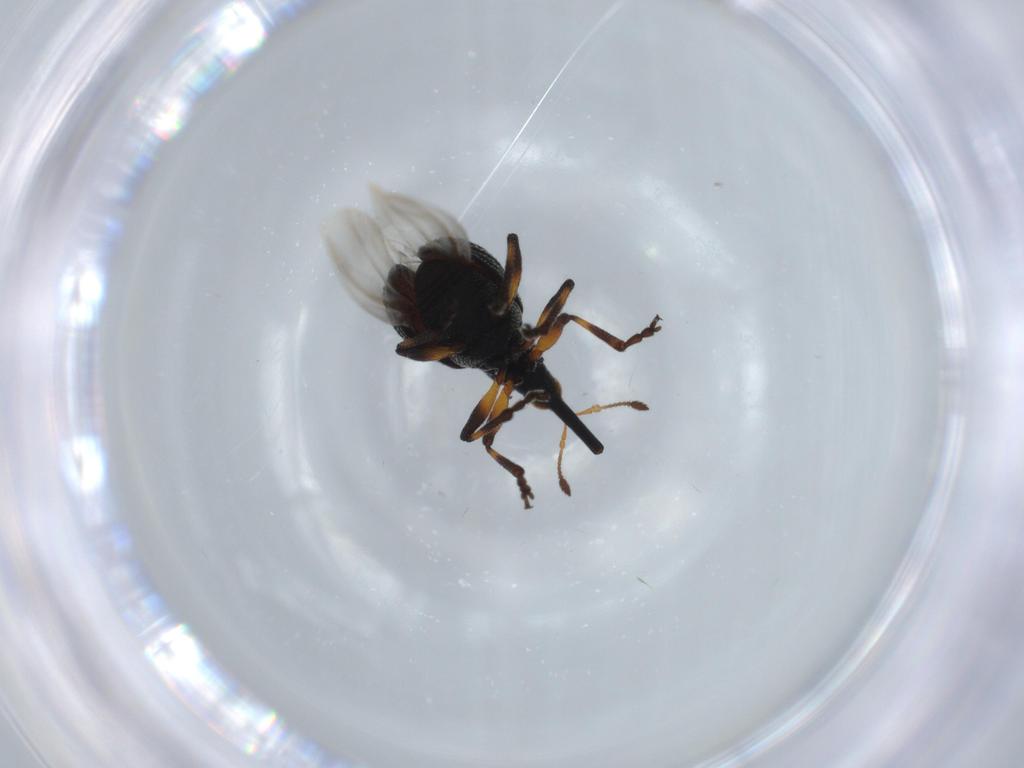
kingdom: Animalia
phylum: Arthropoda
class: Insecta
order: Coleoptera
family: Brentidae
